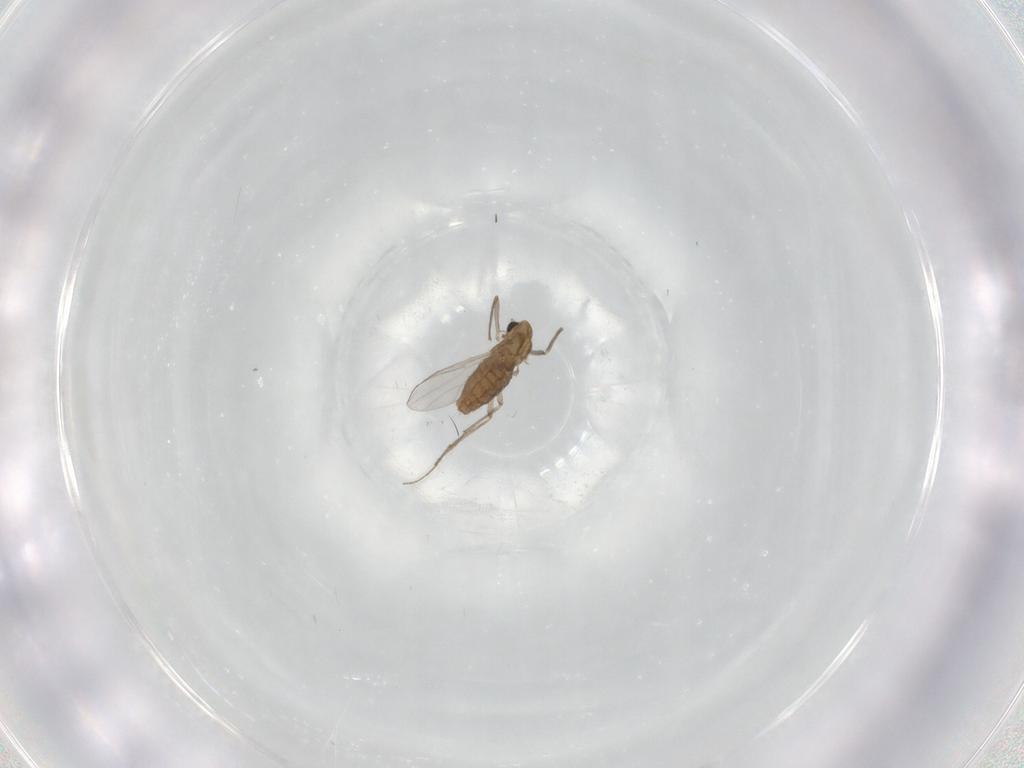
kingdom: Animalia
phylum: Arthropoda
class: Insecta
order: Diptera
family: Chironomidae
